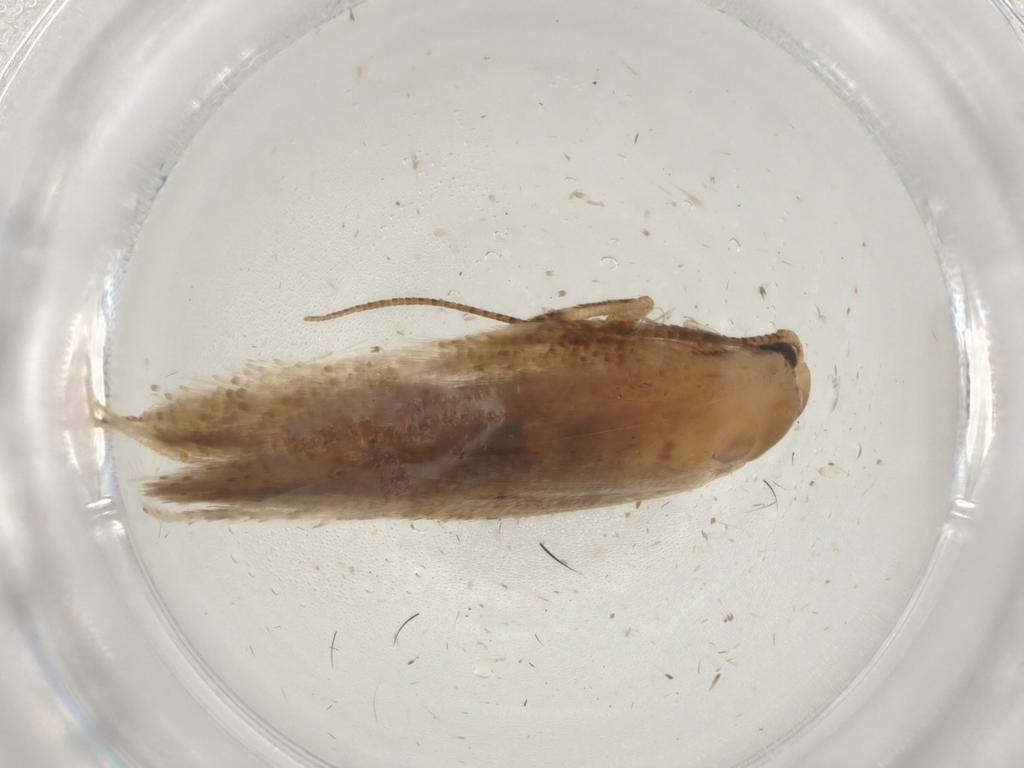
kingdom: Animalia
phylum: Arthropoda
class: Insecta
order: Lepidoptera
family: Tineidae
